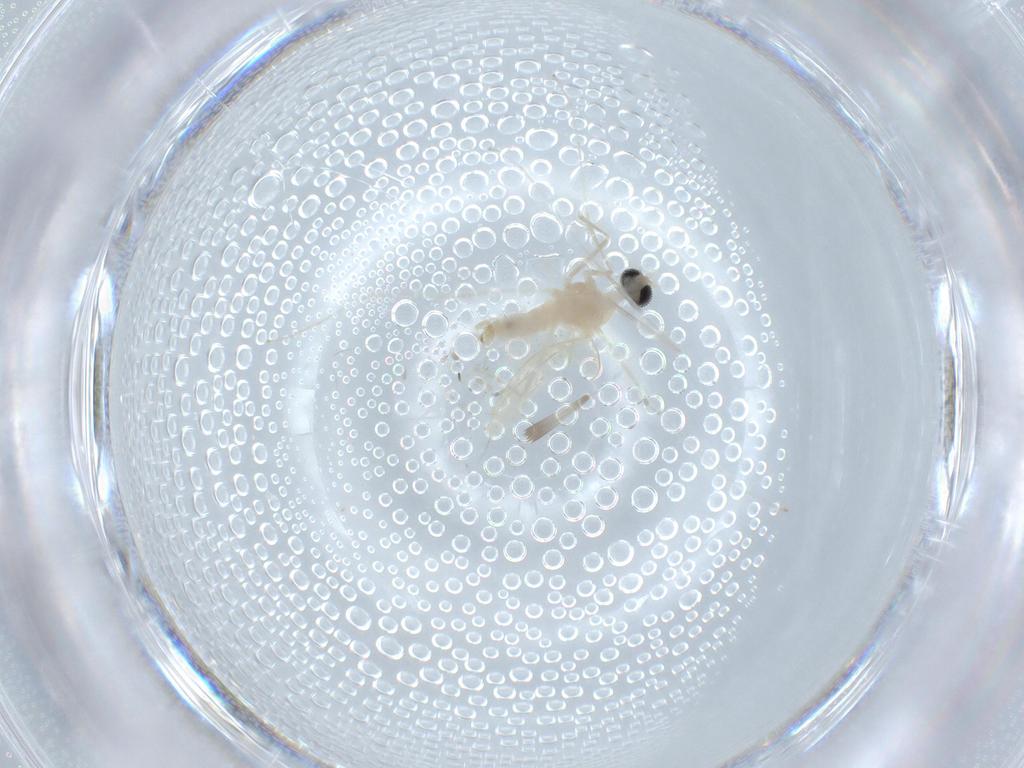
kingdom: Animalia
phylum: Arthropoda
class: Insecta
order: Diptera
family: Cecidomyiidae
